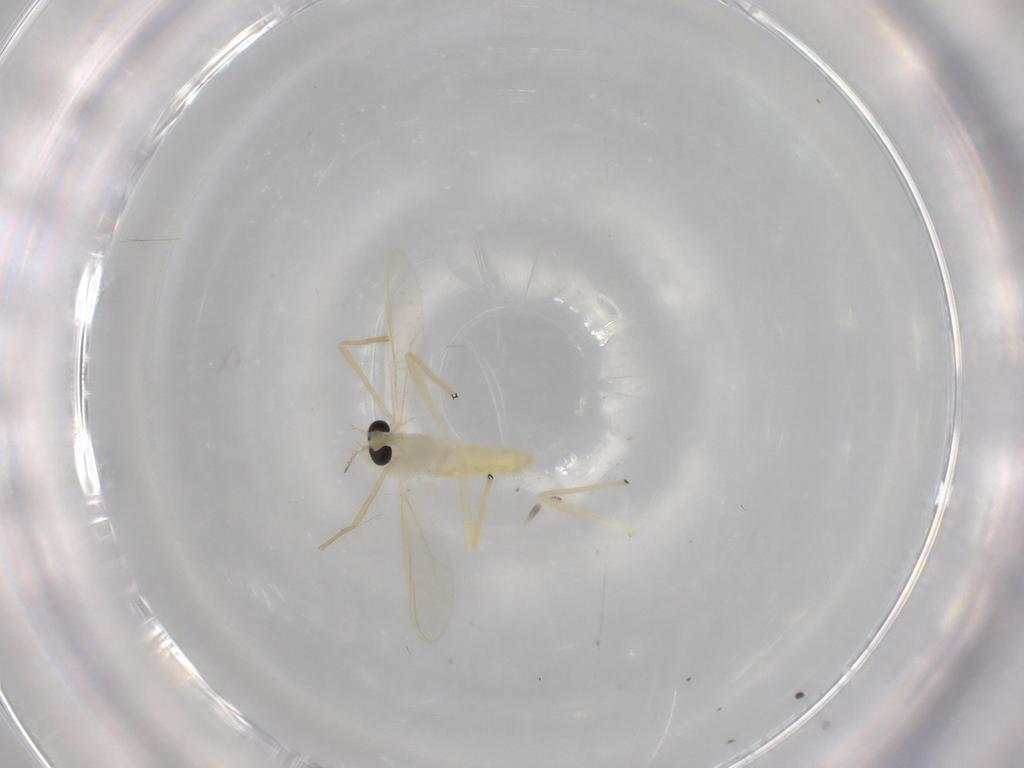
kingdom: Animalia
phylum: Arthropoda
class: Insecta
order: Diptera
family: Chironomidae
